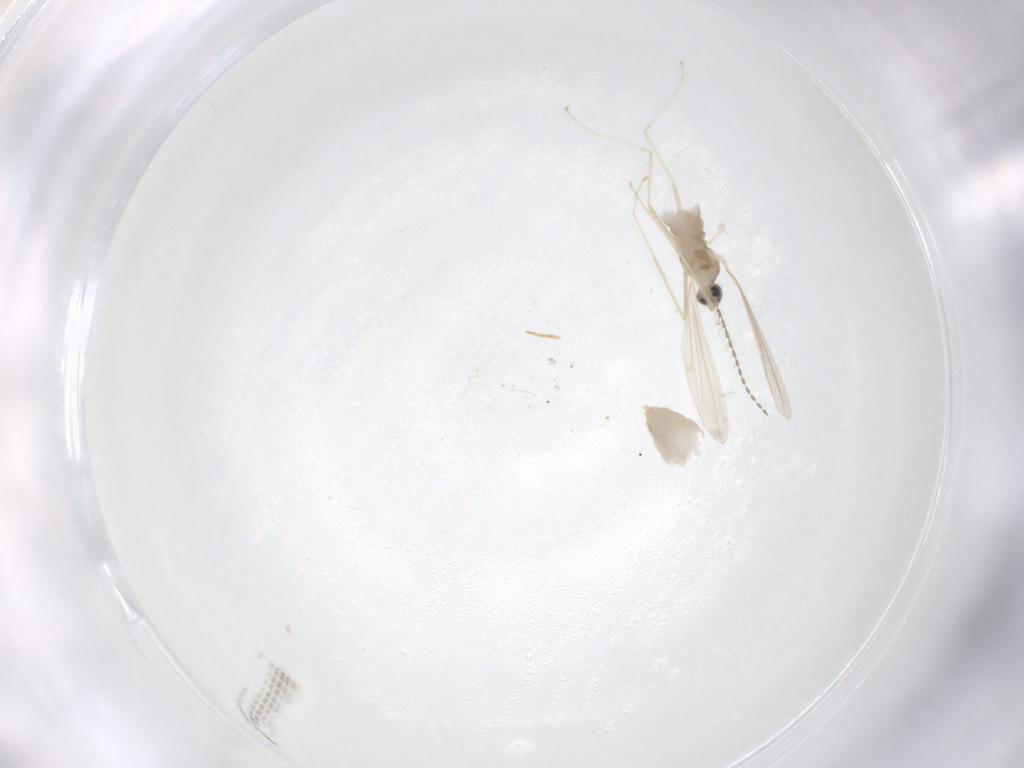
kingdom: Animalia
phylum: Arthropoda
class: Insecta
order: Diptera
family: Cecidomyiidae
